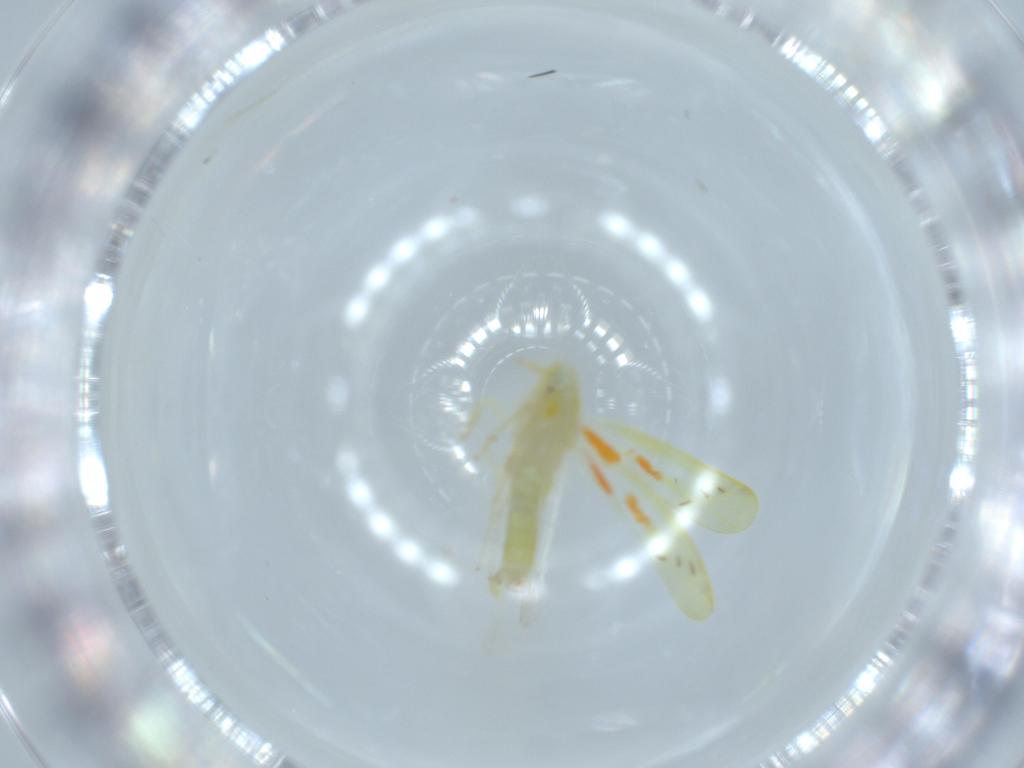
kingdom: Animalia
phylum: Arthropoda
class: Insecta
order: Hemiptera
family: Cicadellidae
